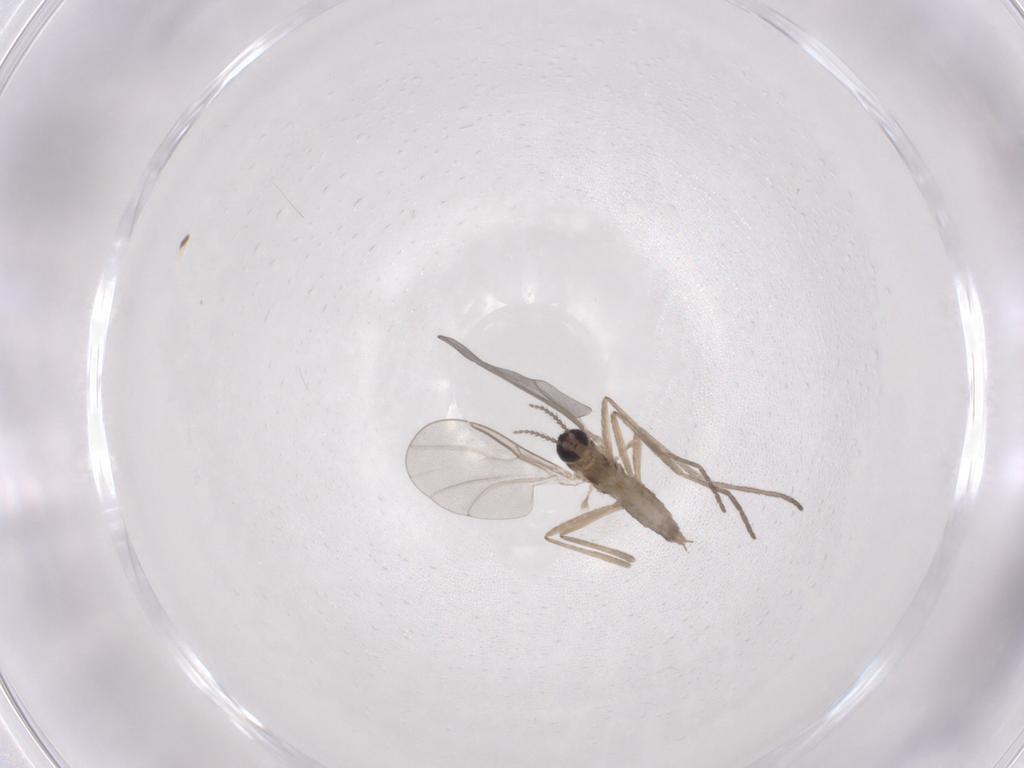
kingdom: Animalia
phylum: Arthropoda
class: Insecta
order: Diptera
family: Cecidomyiidae
